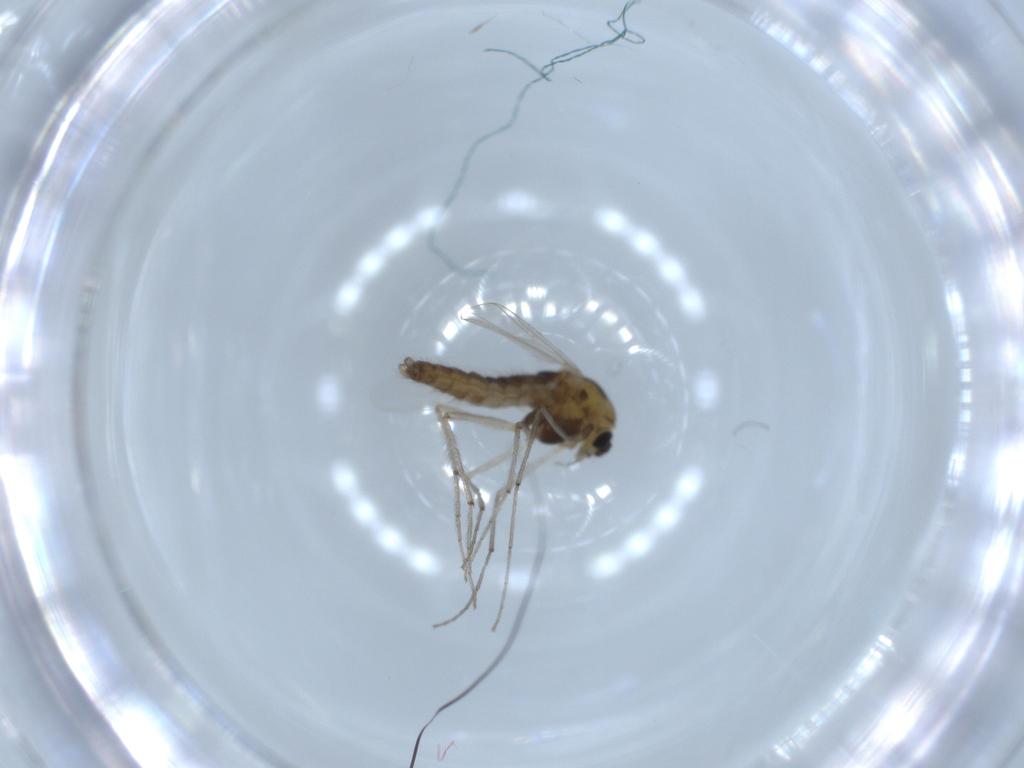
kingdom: Animalia
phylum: Arthropoda
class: Insecta
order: Diptera
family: Chironomidae
